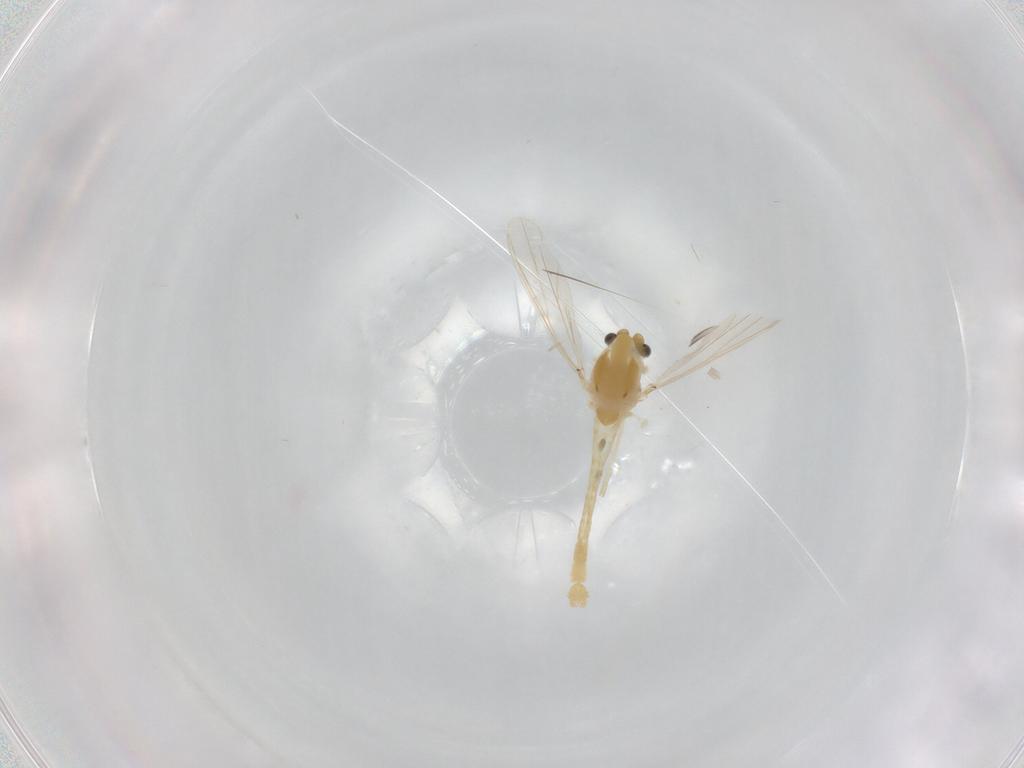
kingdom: Animalia
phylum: Arthropoda
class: Insecta
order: Diptera
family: Chironomidae
